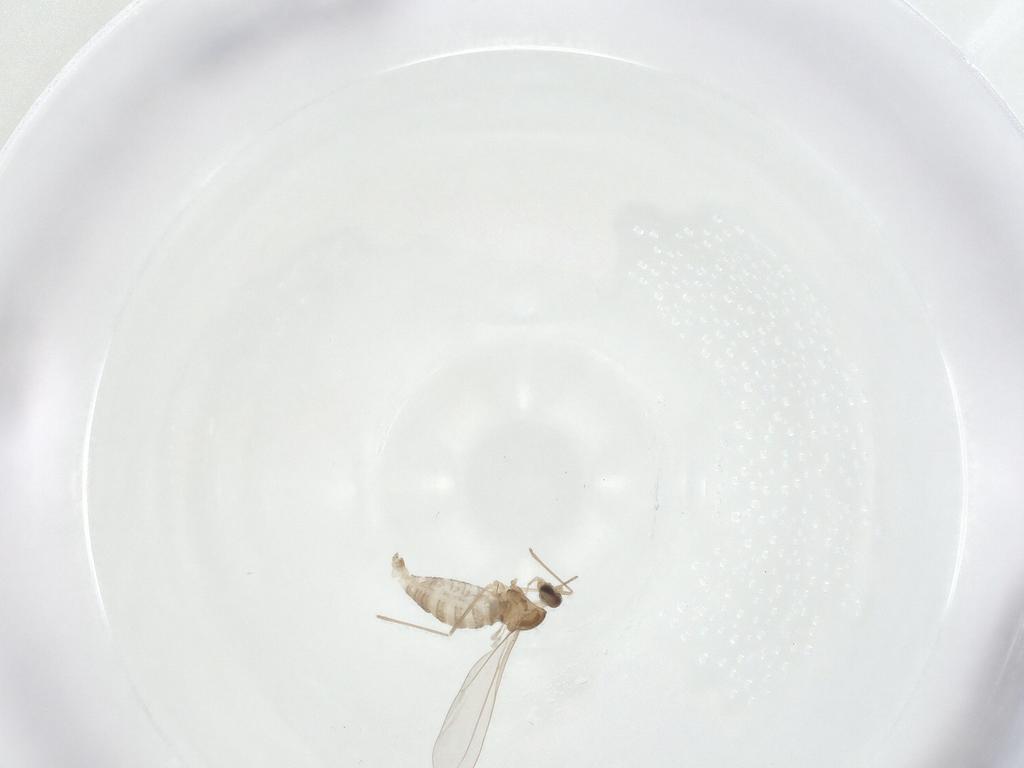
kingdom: Animalia
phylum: Arthropoda
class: Insecta
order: Diptera
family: Cecidomyiidae
